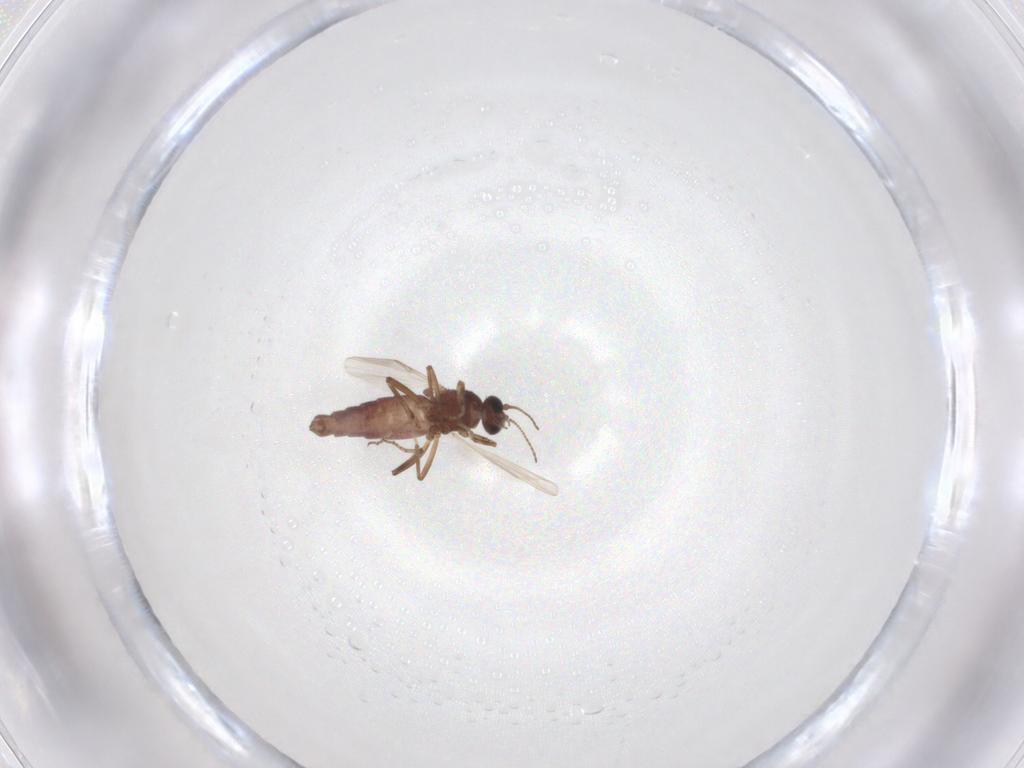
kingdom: Animalia
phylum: Arthropoda
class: Insecta
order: Diptera
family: Ceratopogonidae
